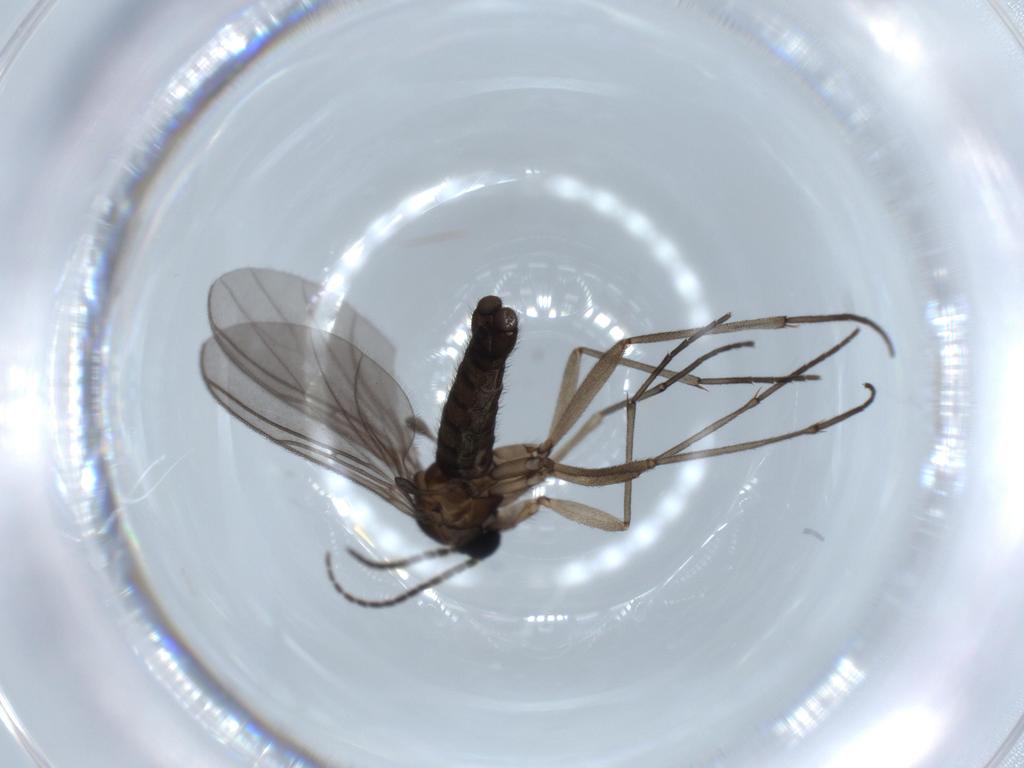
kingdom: Animalia
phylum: Arthropoda
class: Insecta
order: Diptera
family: Sciaridae
